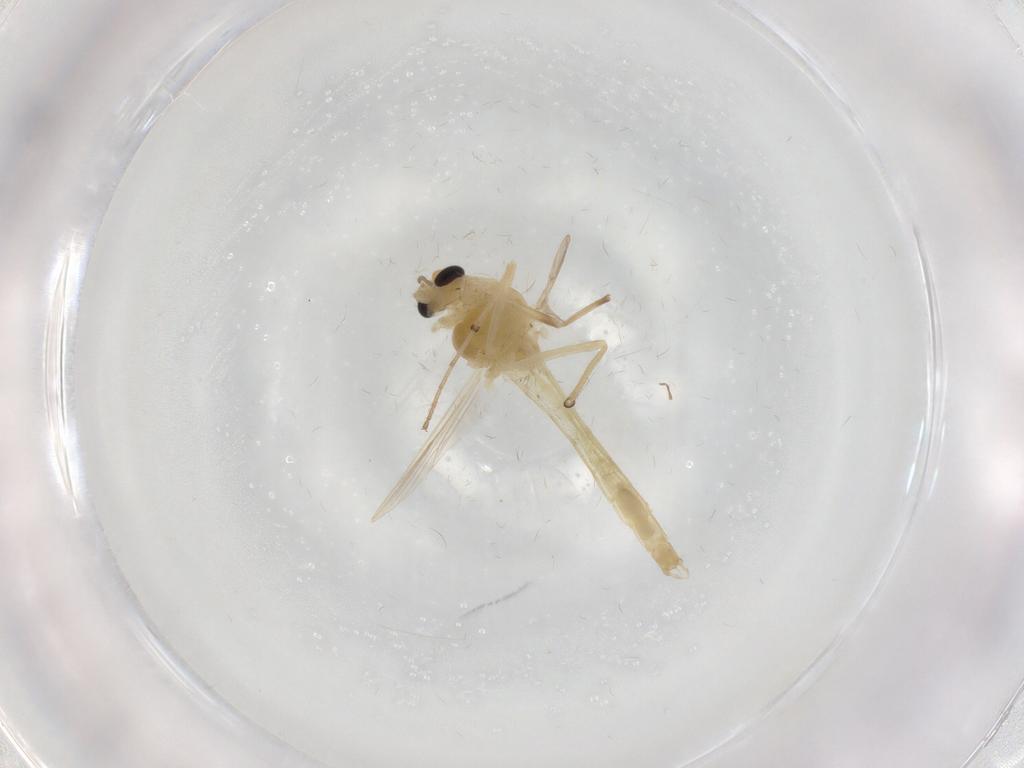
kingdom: Animalia
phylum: Arthropoda
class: Insecta
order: Diptera
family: Chironomidae
